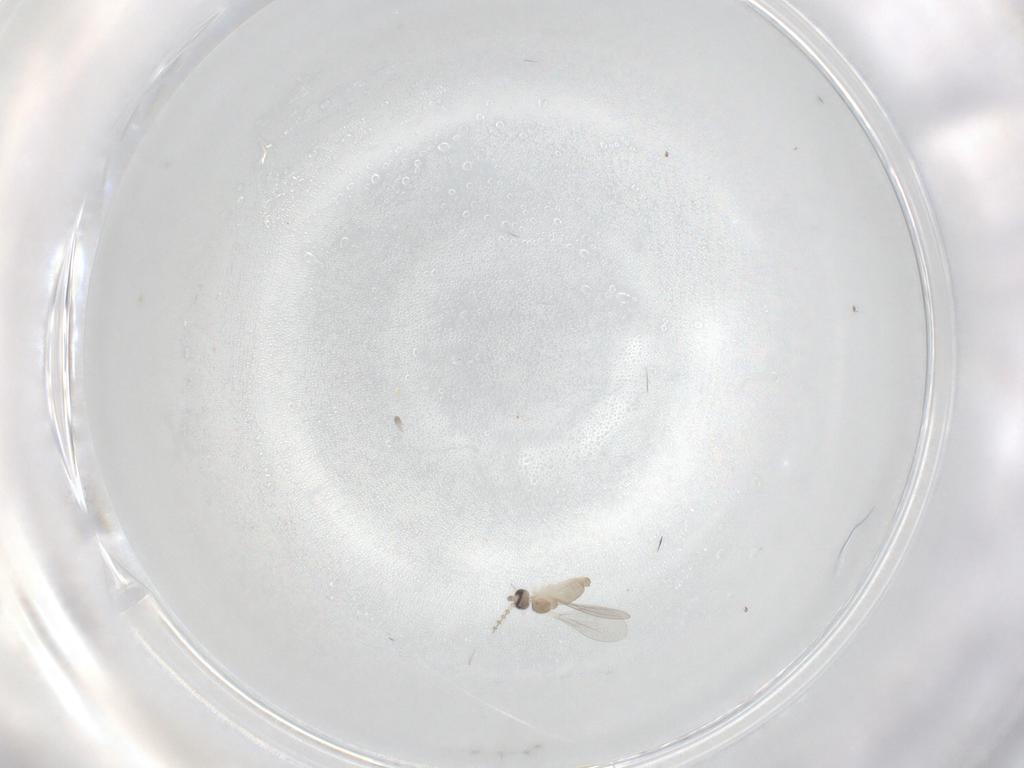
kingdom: Animalia
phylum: Arthropoda
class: Insecta
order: Diptera
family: Cecidomyiidae
